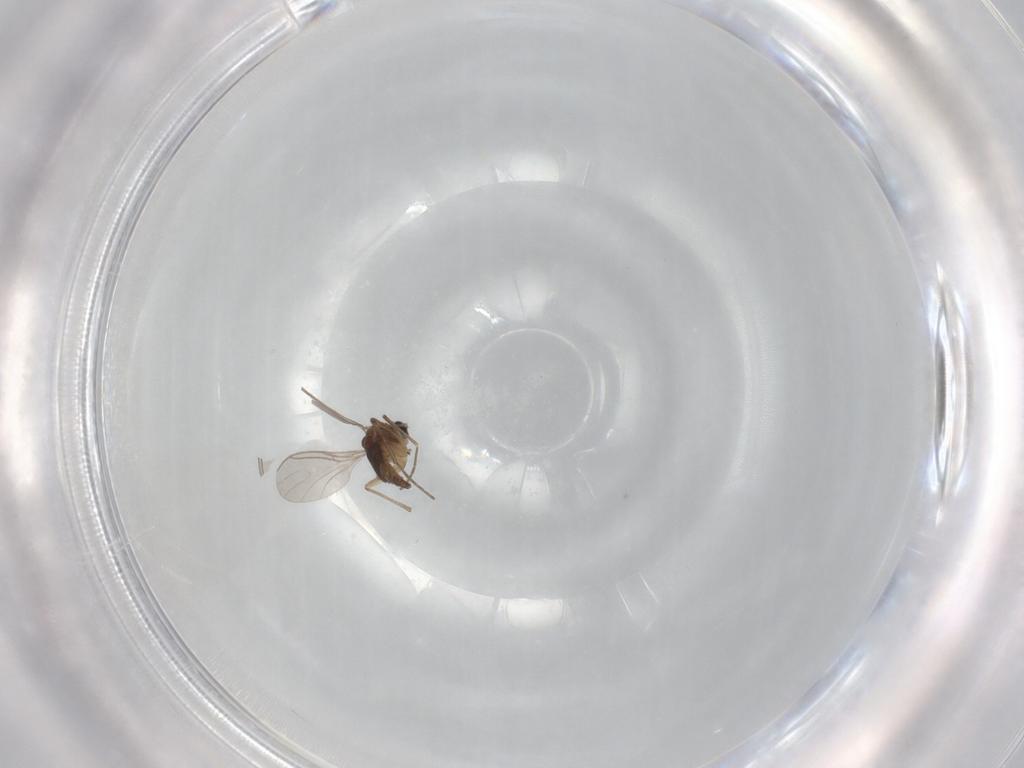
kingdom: Animalia
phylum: Arthropoda
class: Insecta
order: Diptera
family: Sciaridae
